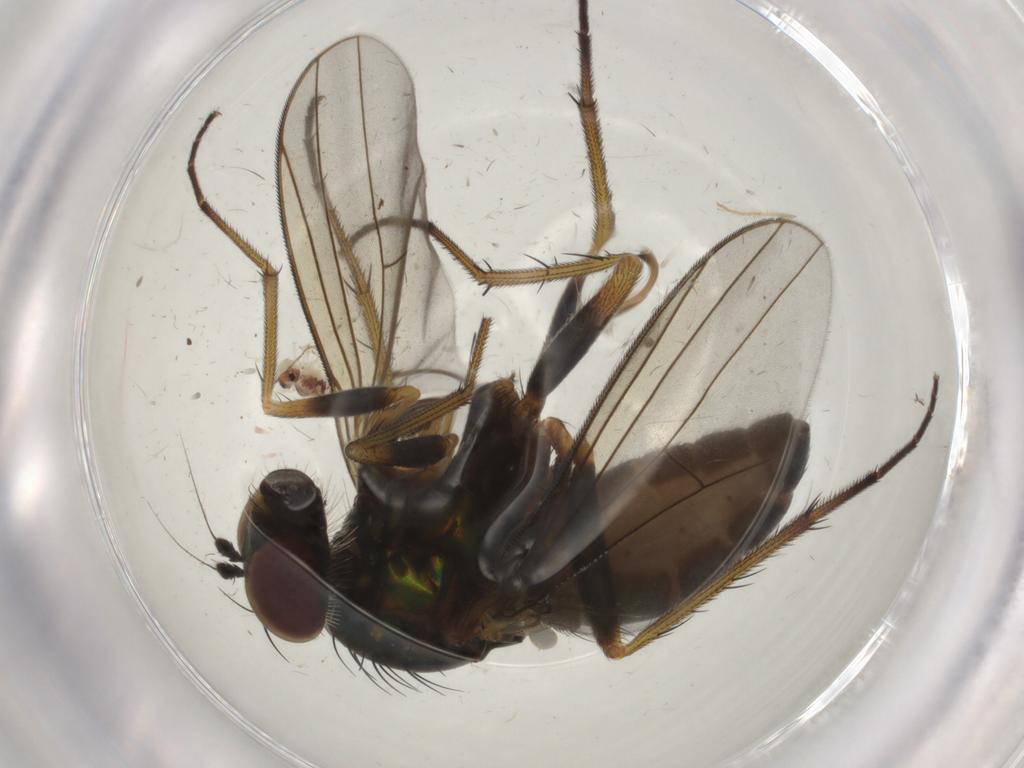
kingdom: Animalia
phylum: Arthropoda
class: Insecta
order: Diptera
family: Dolichopodidae
